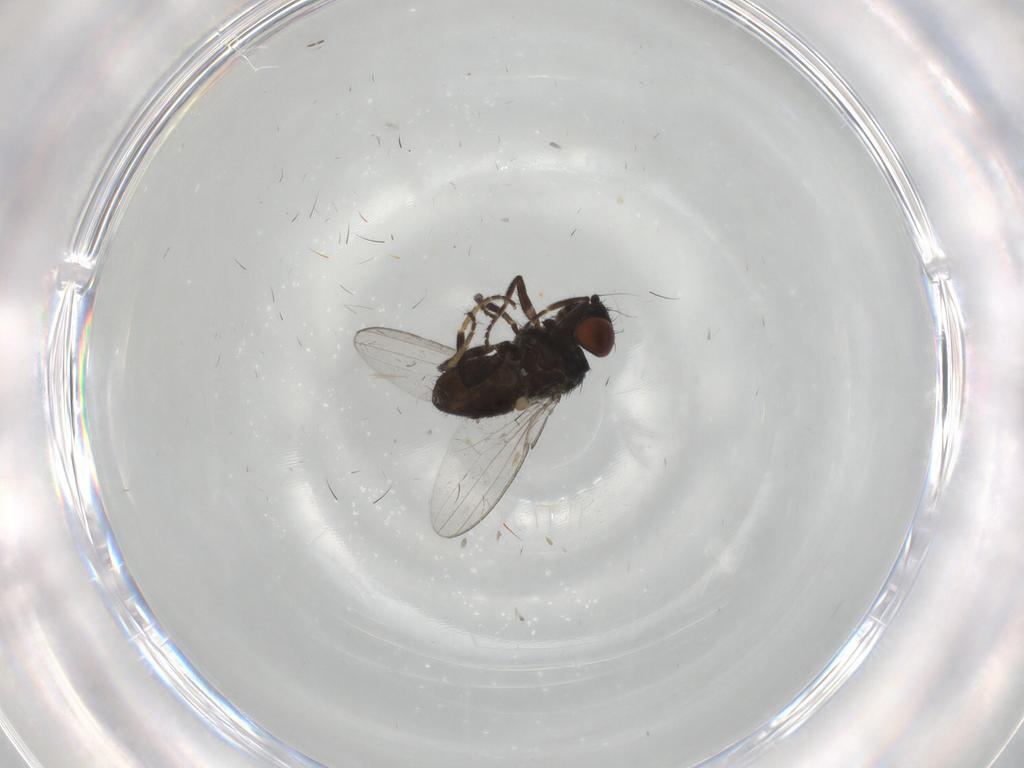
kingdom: Animalia
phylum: Arthropoda
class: Insecta
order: Diptera
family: Milichiidae
